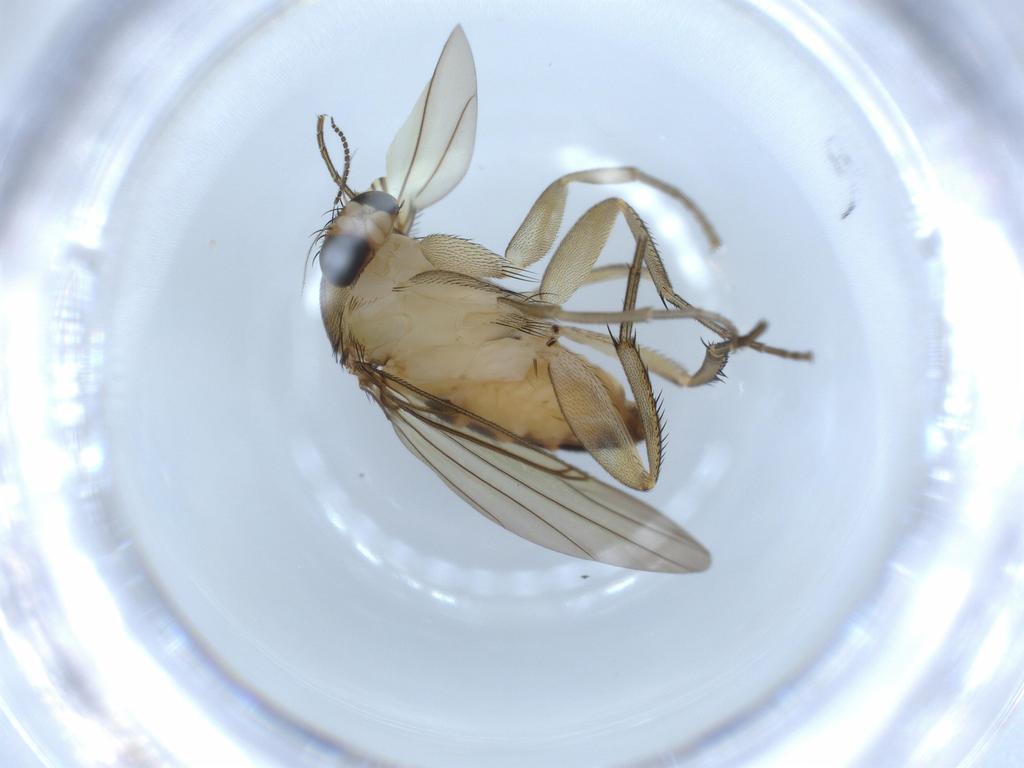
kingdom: Animalia
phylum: Arthropoda
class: Insecta
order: Diptera
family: Sciaridae
